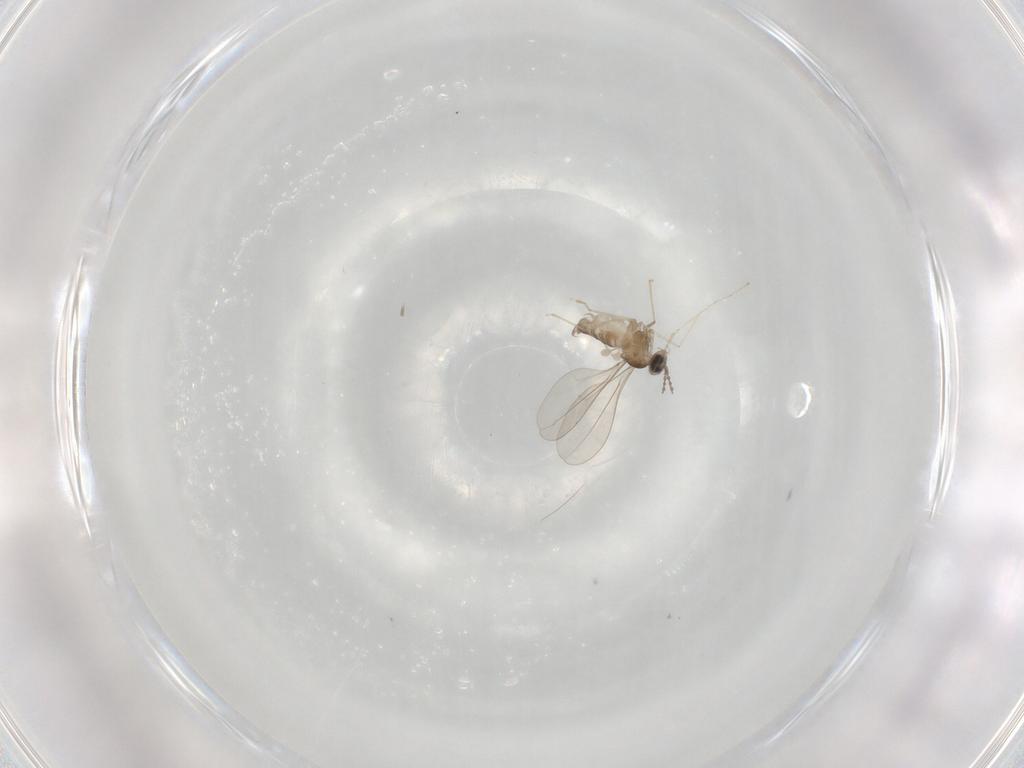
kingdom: Animalia
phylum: Arthropoda
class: Insecta
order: Diptera
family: Cecidomyiidae
